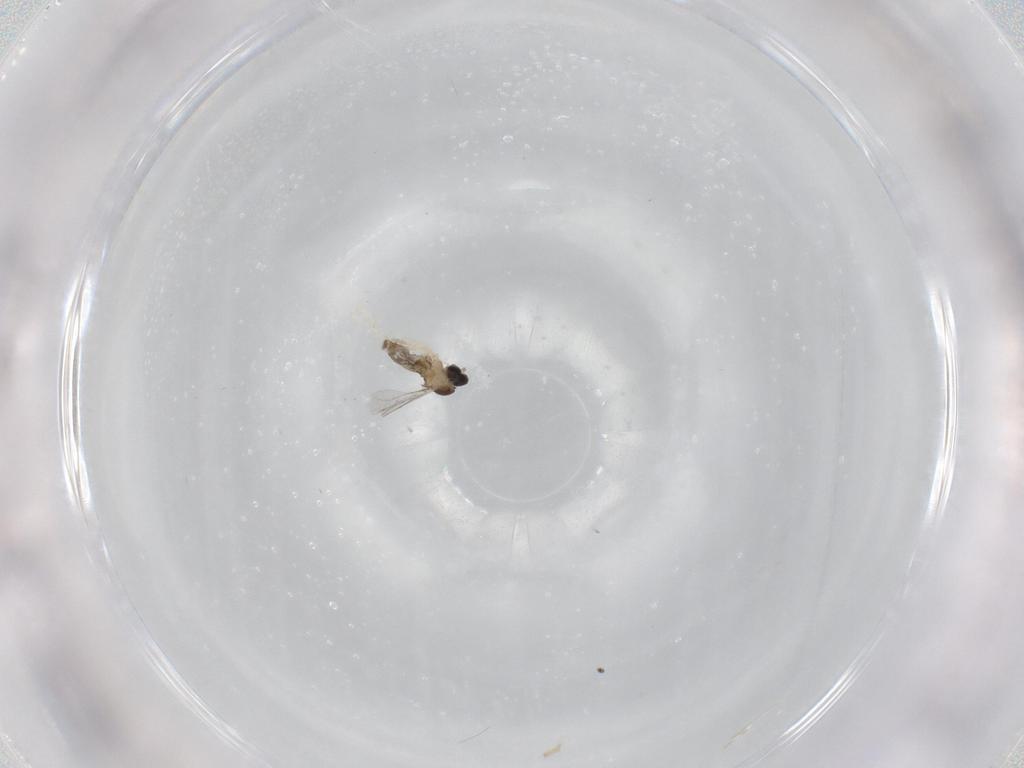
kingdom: Animalia
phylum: Arthropoda
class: Insecta
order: Diptera
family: Cecidomyiidae
